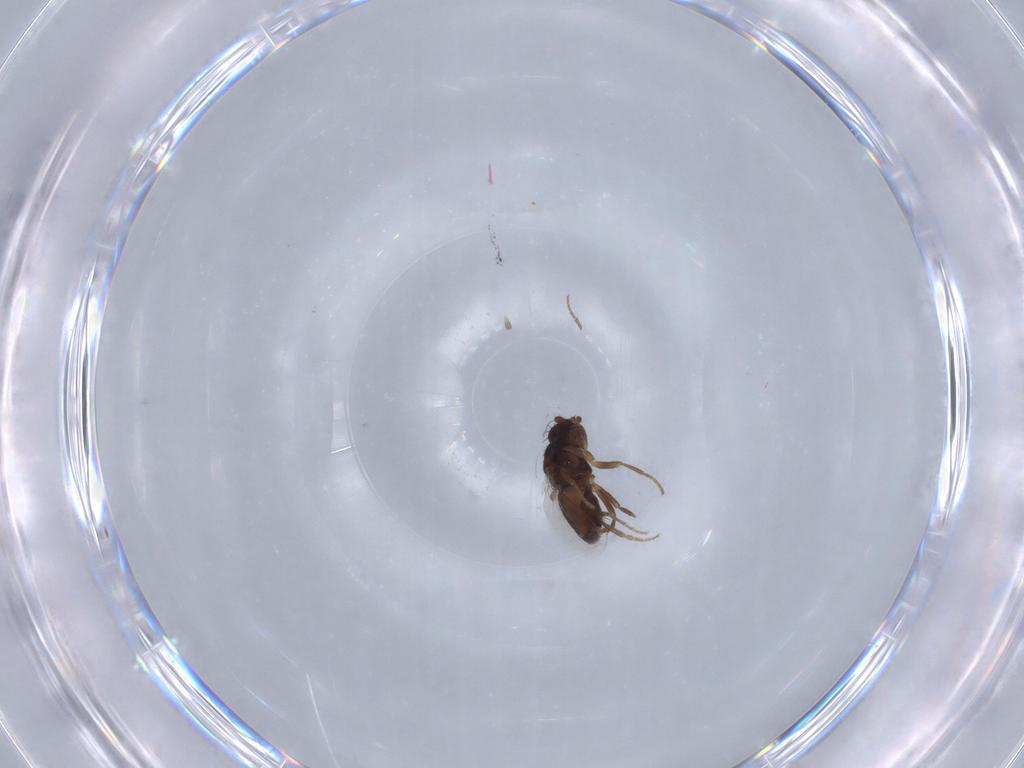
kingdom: Animalia
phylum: Arthropoda
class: Insecta
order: Diptera
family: Sphaeroceridae
